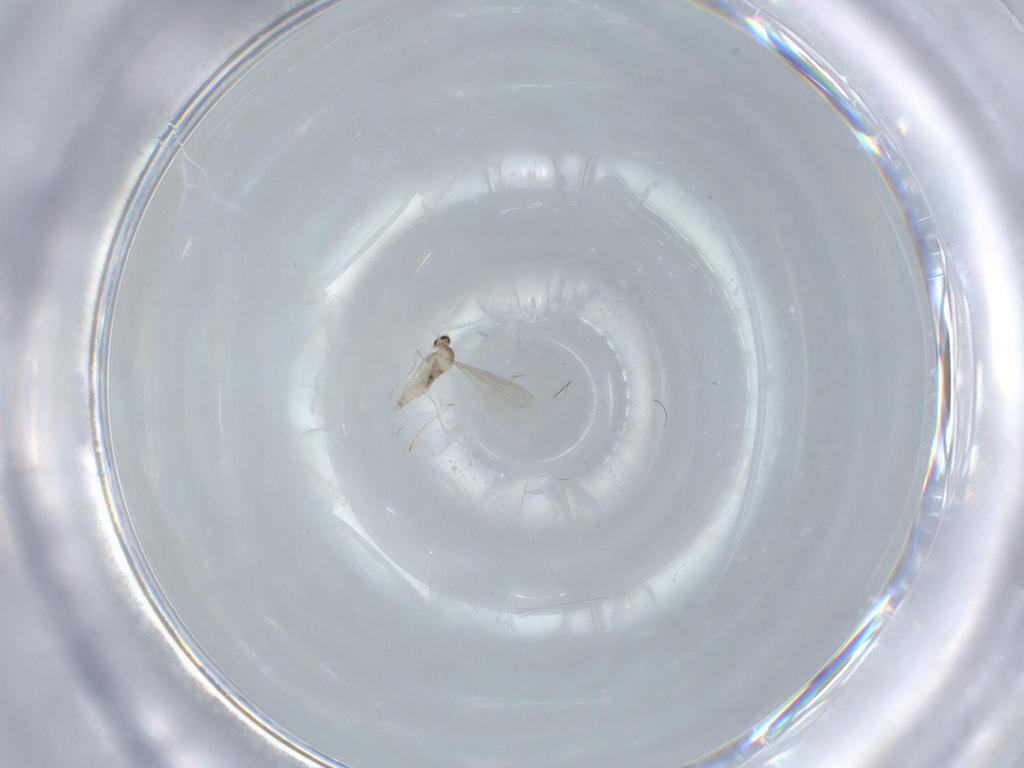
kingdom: Animalia
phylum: Arthropoda
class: Insecta
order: Diptera
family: Cecidomyiidae
